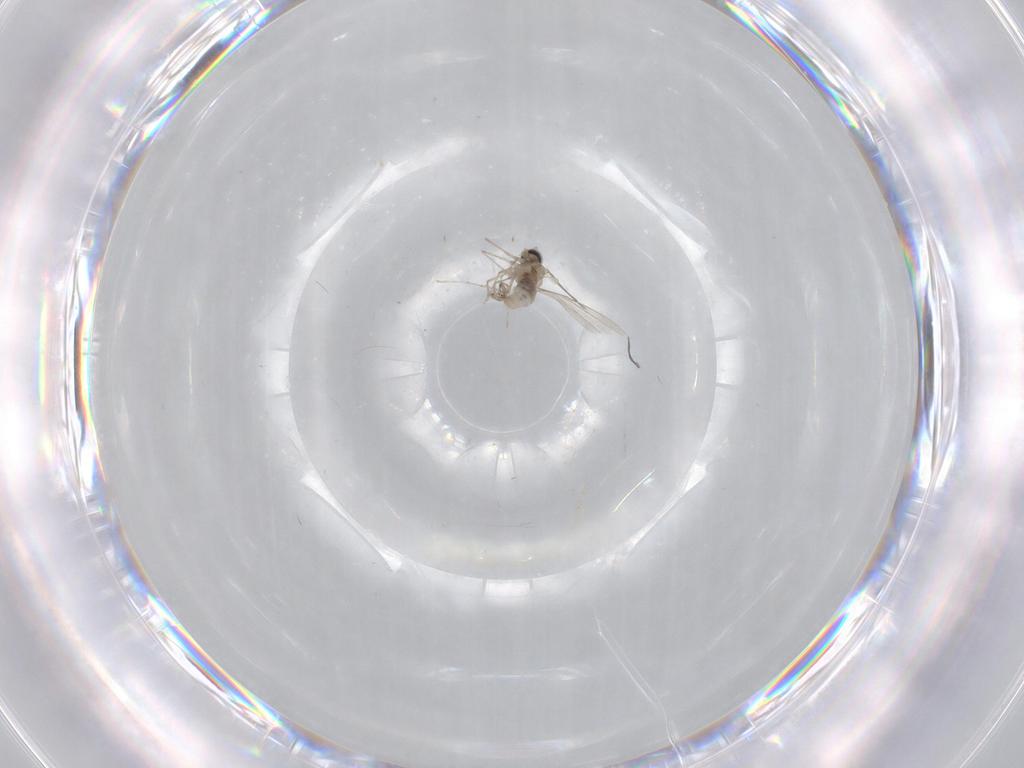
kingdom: Animalia
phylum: Arthropoda
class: Insecta
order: Diptera
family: Cecidomyiidae
